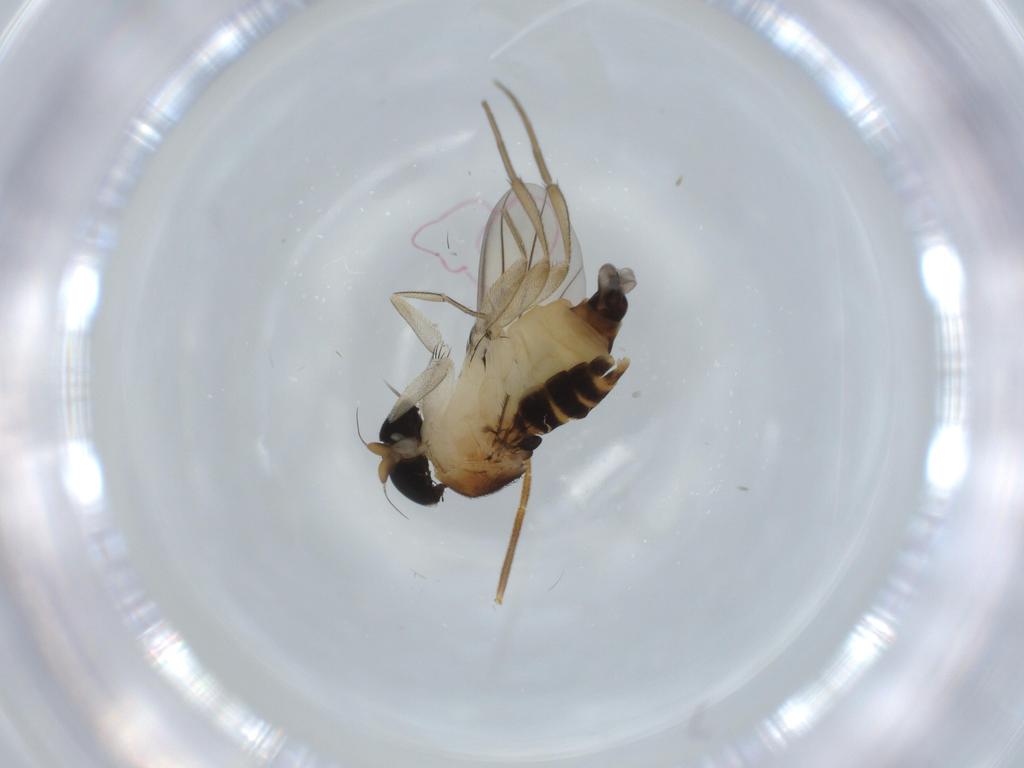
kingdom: Animalia
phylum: Arthropoda
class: Insecta
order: Diptera
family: Phoridae
